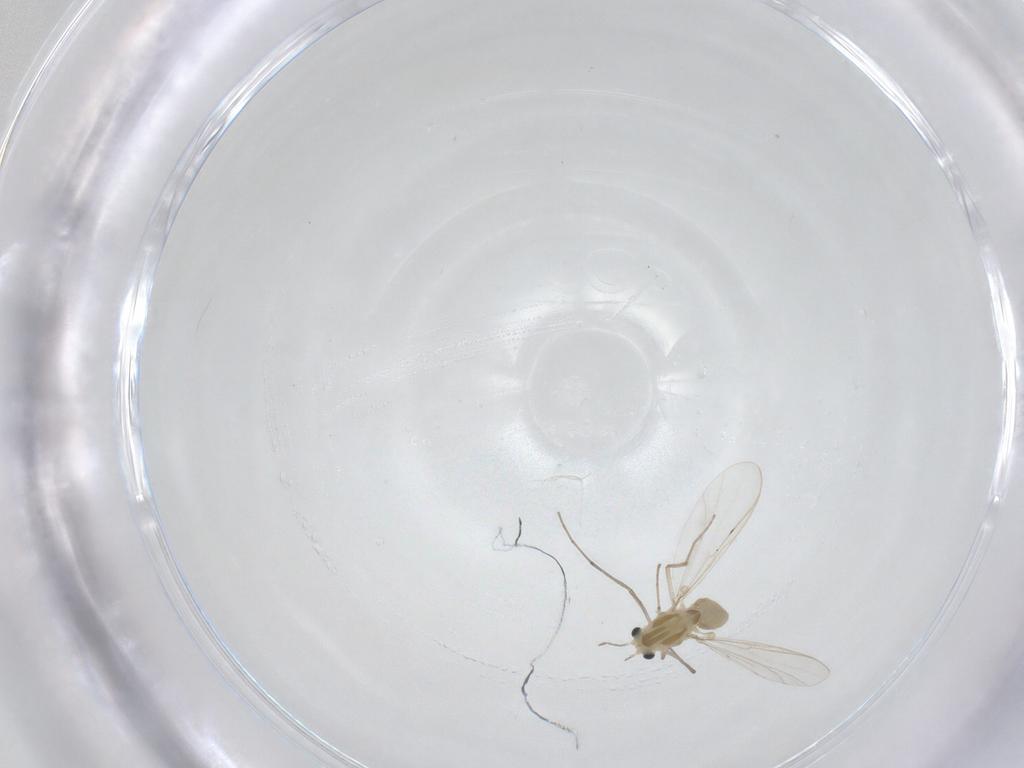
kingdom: Animalia
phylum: Arthropoda
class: Insecta
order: Diptera
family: Chironomidae
